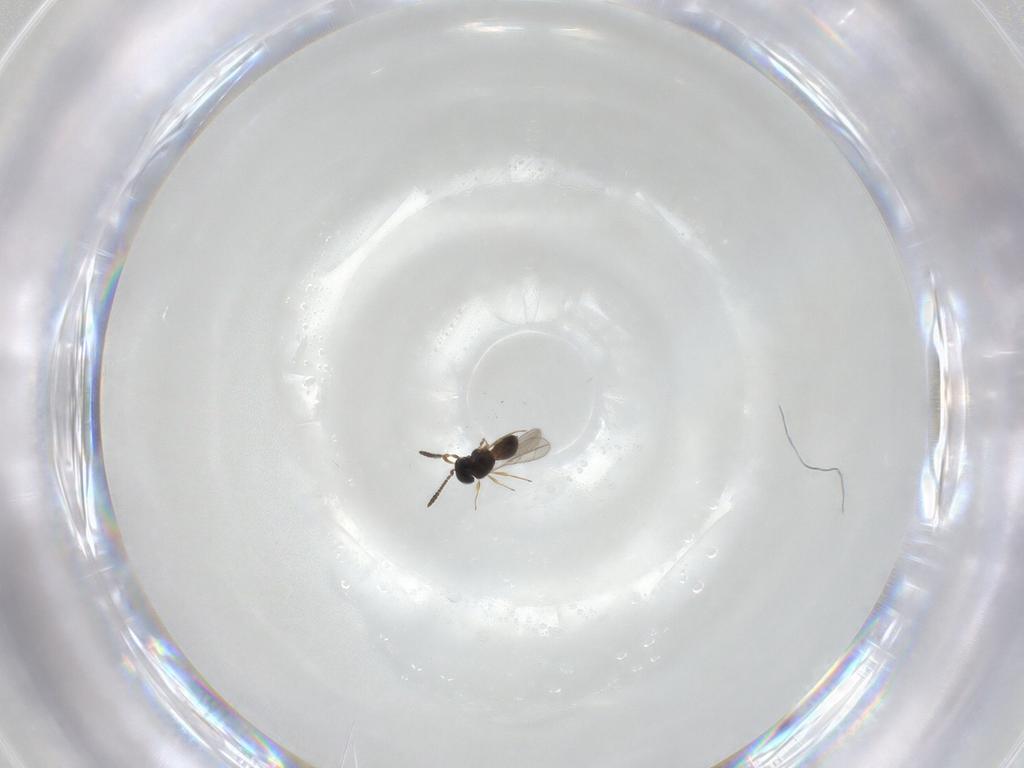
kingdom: Animalia
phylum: Arthropoda
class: Insecta
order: Hymenoptera
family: Scelionidae
